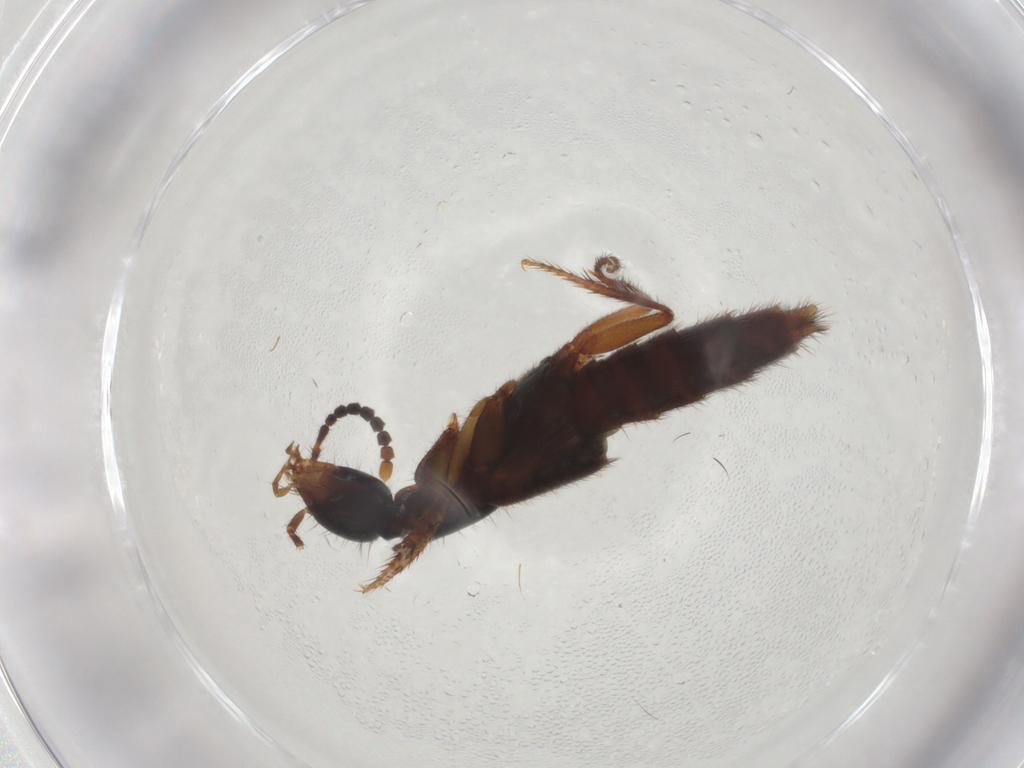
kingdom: Animalia
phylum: Arthropoda
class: Insecta
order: Coleoptera
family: Staphylinidae
